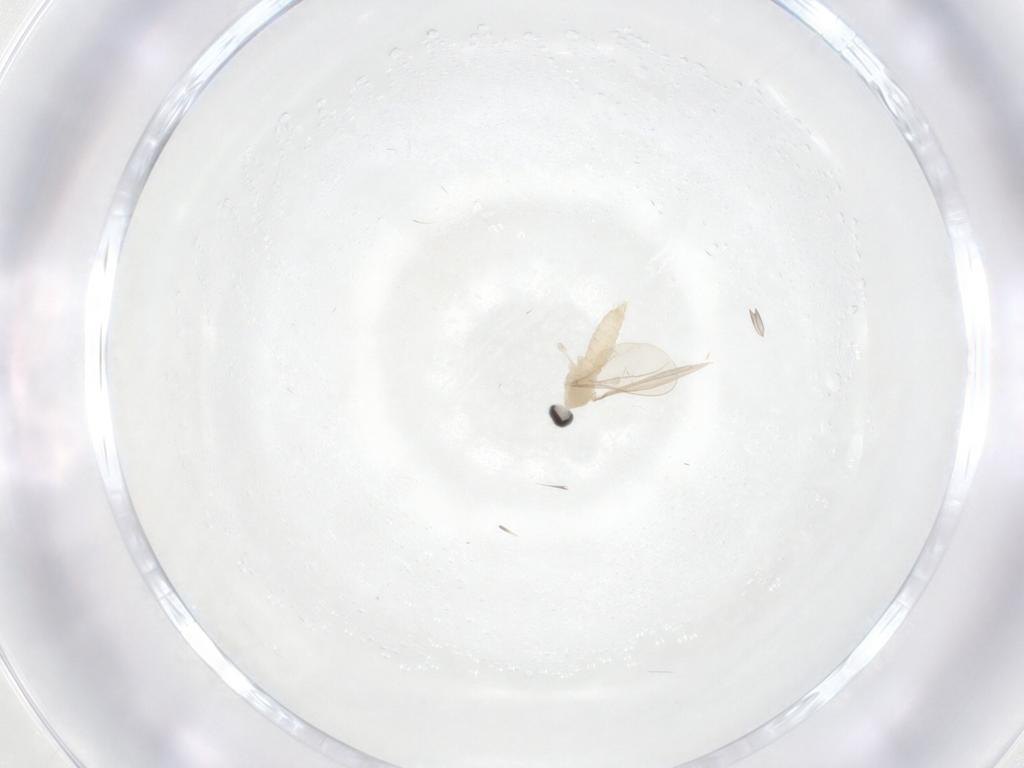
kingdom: Animalia
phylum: Arthropoda
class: Insecta
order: Diptera
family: Cecidomyiidae
